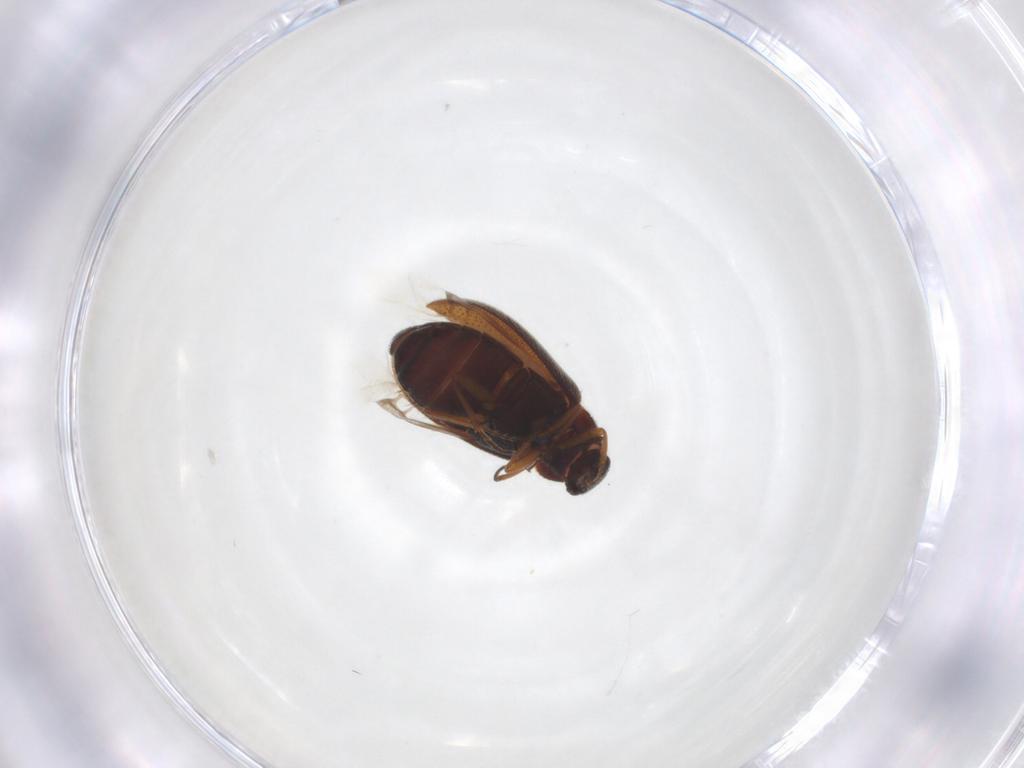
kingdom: Animalia
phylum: Arthropoda
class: Insecta
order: Coleoptera
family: Rhadalidae
